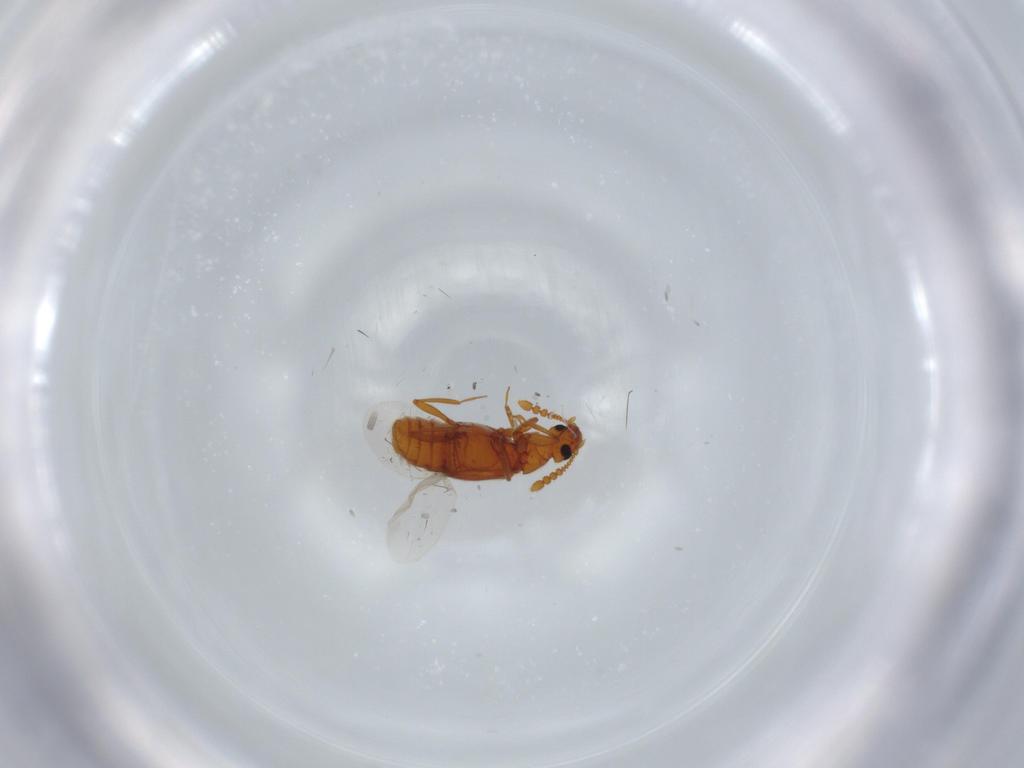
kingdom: Animalia
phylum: Arthropoda
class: Insecta
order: Coleoptera
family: Staphylinidae
